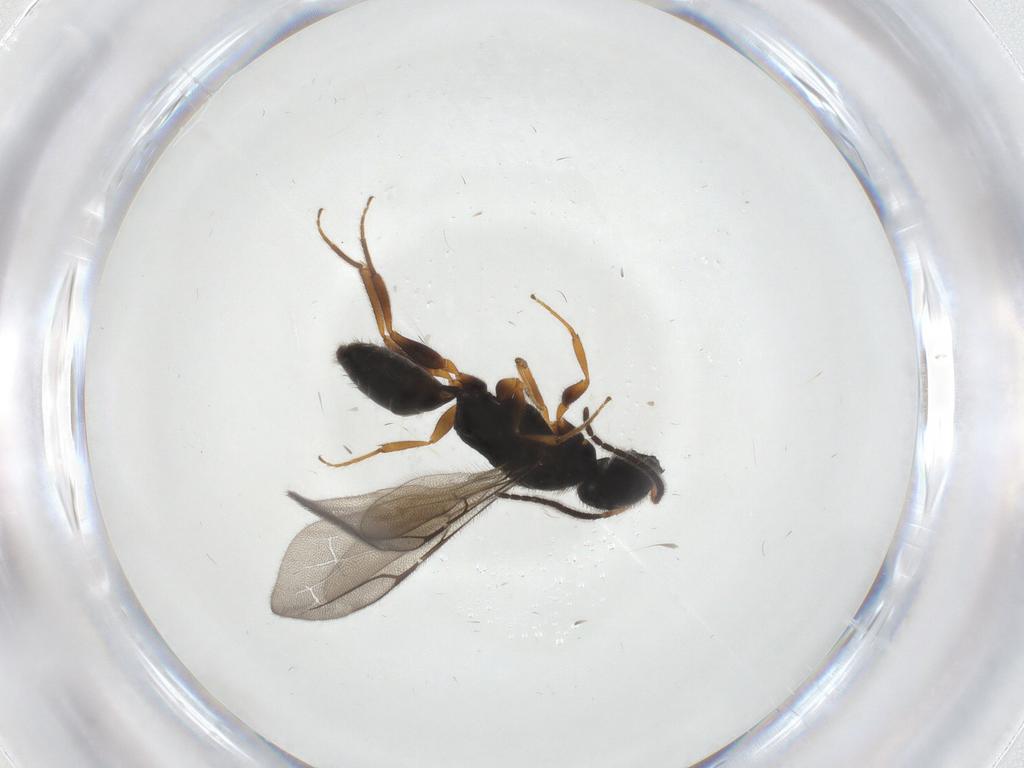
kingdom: Animalia
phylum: Arthropoda
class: Insecta
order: Hymenoptera
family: Bethylidae
